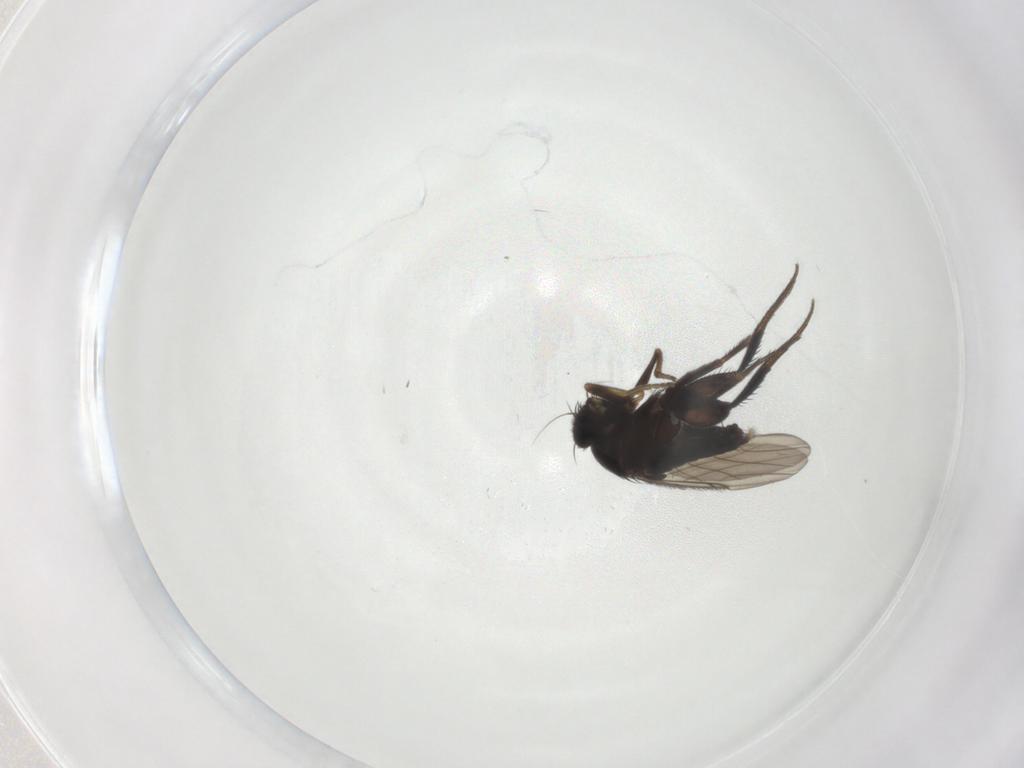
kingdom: Animalia
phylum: Arthropoda
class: Insecta
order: Diptera
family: Phoridae
